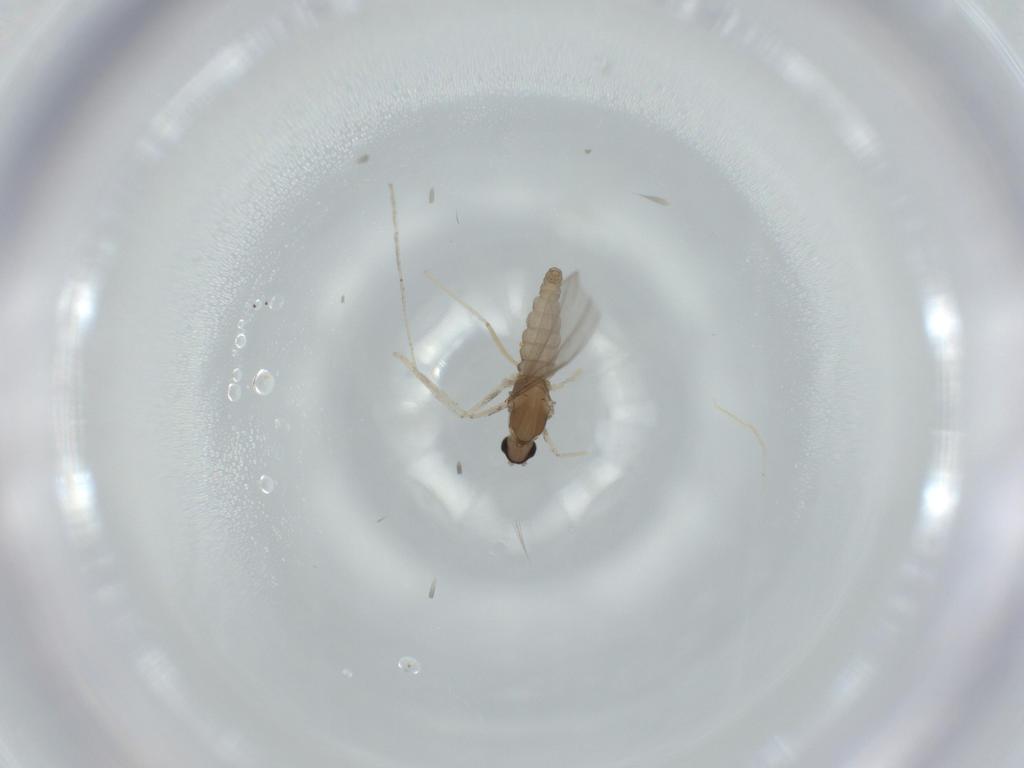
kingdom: Animalia
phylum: Arthropoda
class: Insecta
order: Diptera
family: Cecidomyiidae
